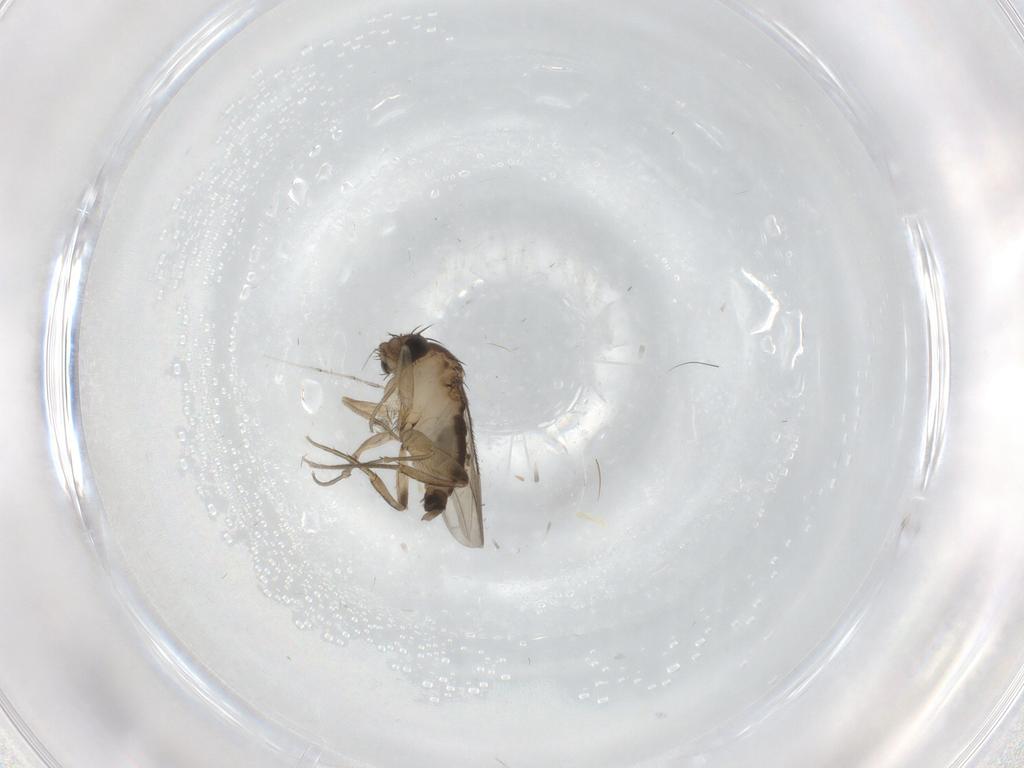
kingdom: Animalia
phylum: Arthropoda
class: Insecta
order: Diptera
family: Cecidomyiidae
